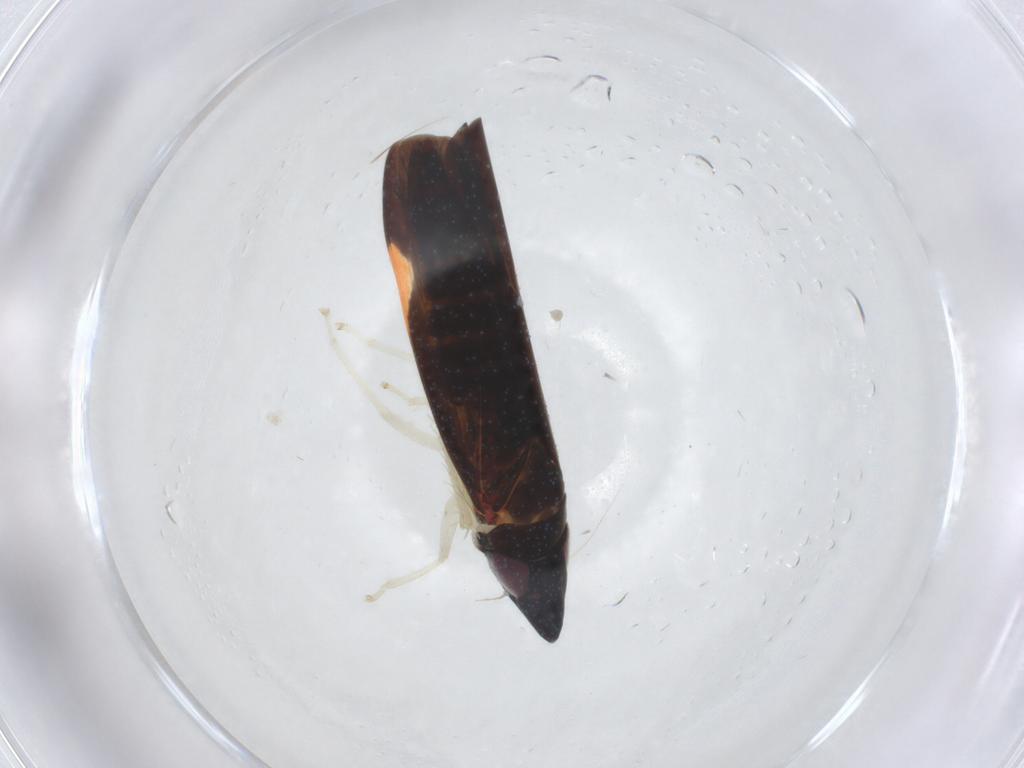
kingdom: Animalia
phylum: Arthropoda
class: Insecta
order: Hemiptera
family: Cicadellidae
